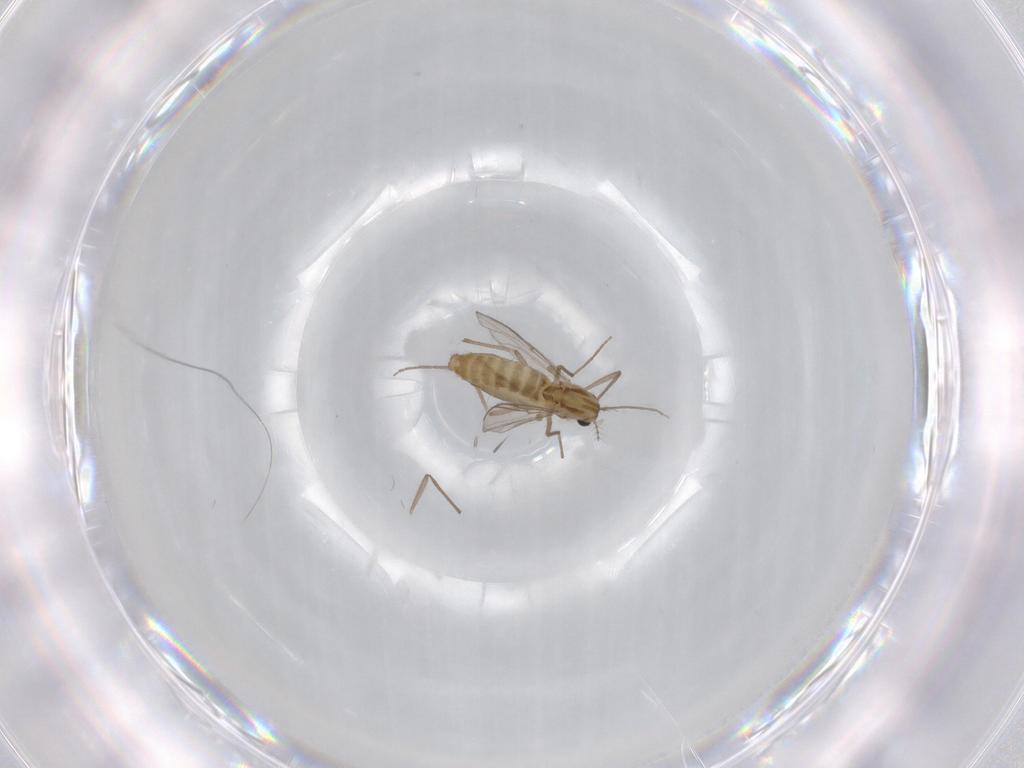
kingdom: Animalia
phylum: Arthropoda
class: Insecta
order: Diptera
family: Chironomidae
